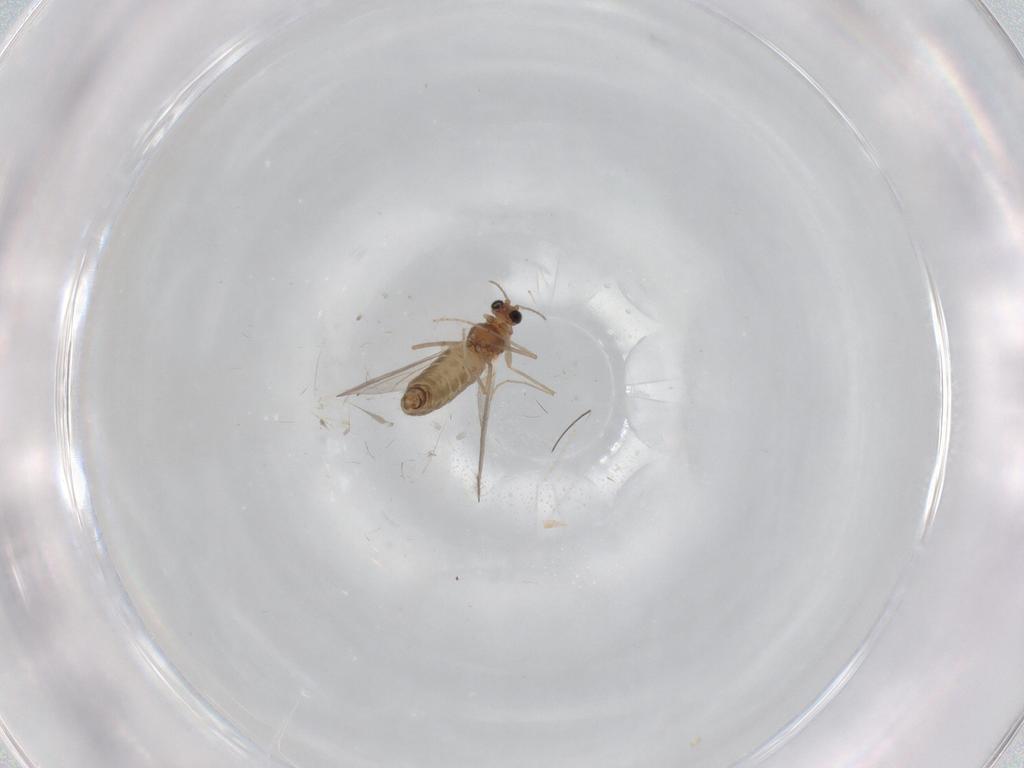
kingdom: Animalia
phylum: Arthropoda
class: Insecta
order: Diptera
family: Chironomidae
